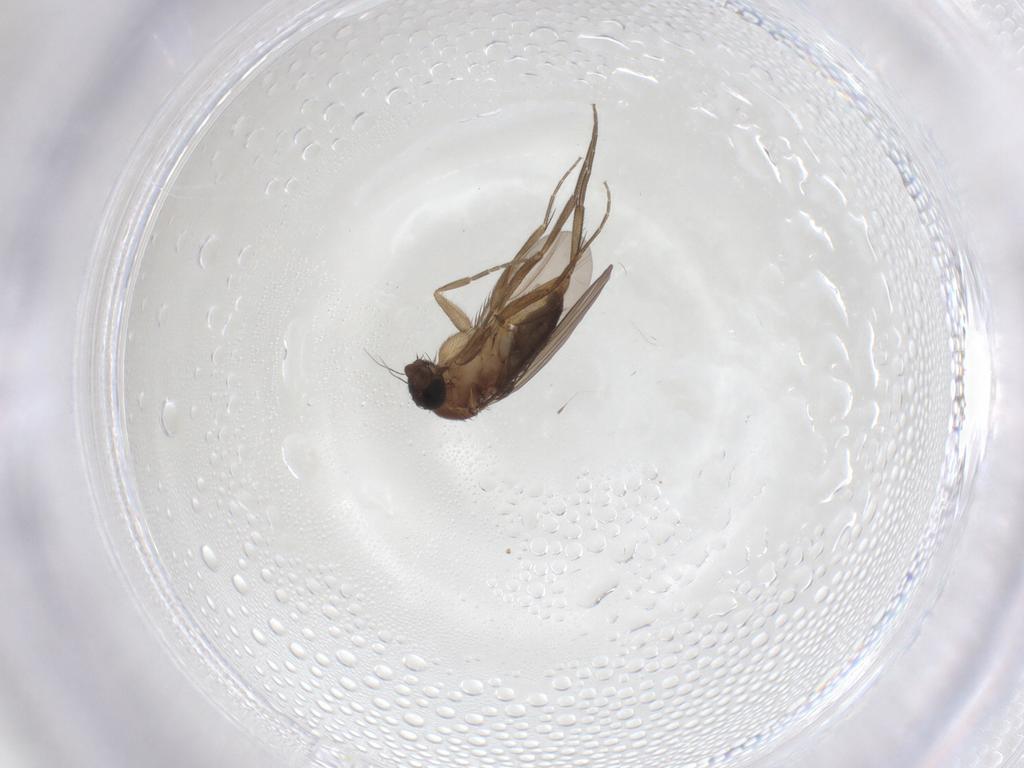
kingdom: Animalia
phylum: Arthropoda
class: Insecta
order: Diptera
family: Phoridae
